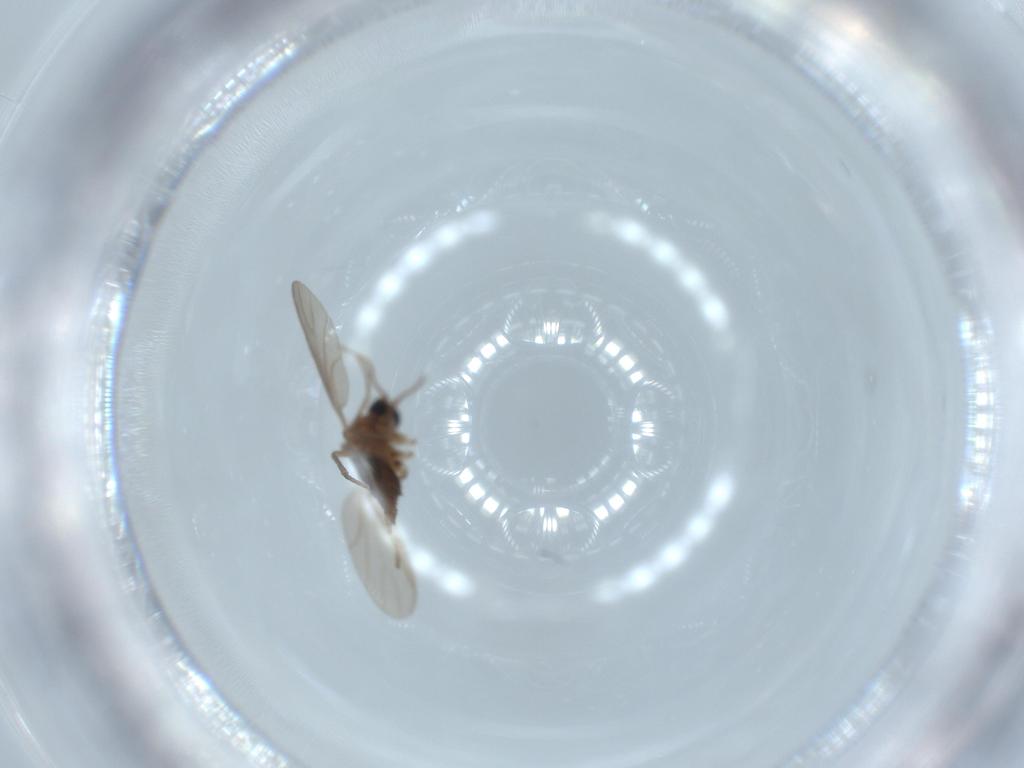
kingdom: Animalia
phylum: Arthropoda
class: Insecta
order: Diptera
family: Sciaridae
